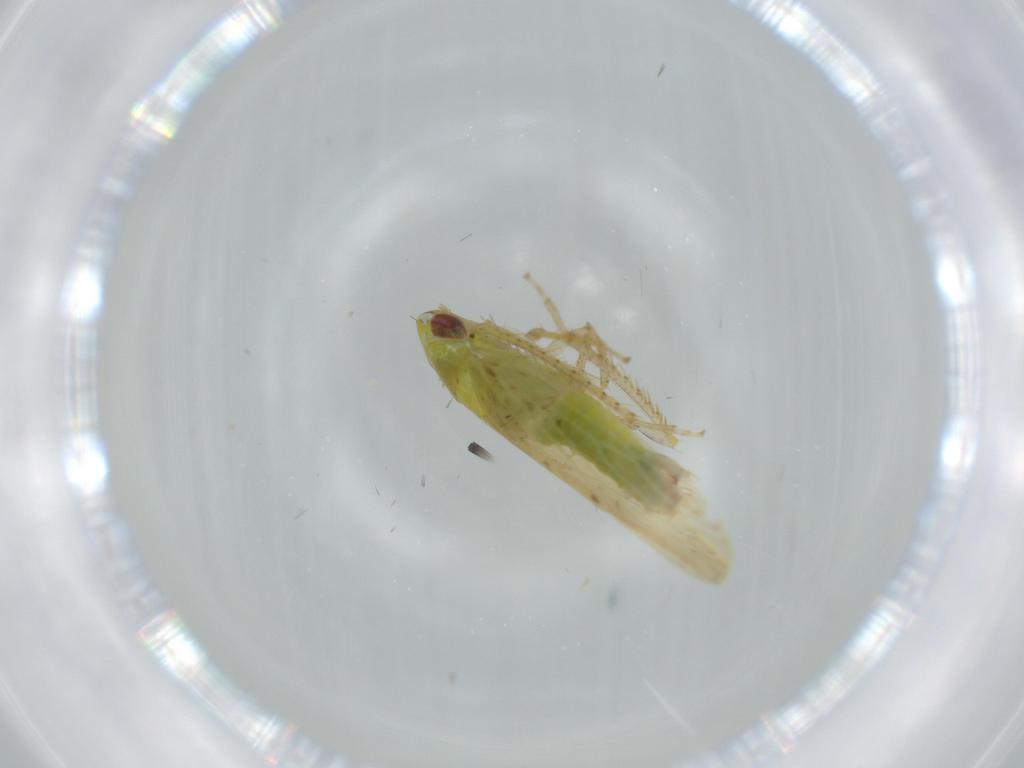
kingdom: Animalia
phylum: Arthropoda
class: Insecta
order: Hemiptera
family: Cicadellidae
